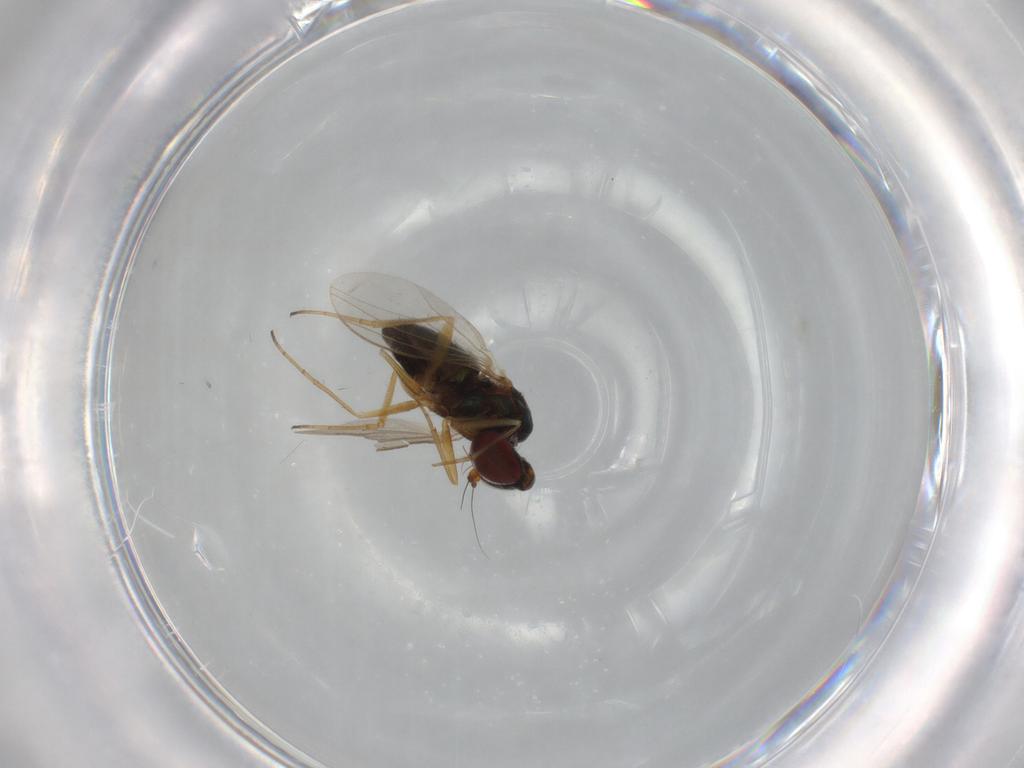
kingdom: Animalia
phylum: Arthropoda
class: Insecta
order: Diptera
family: Dolichopodidae
